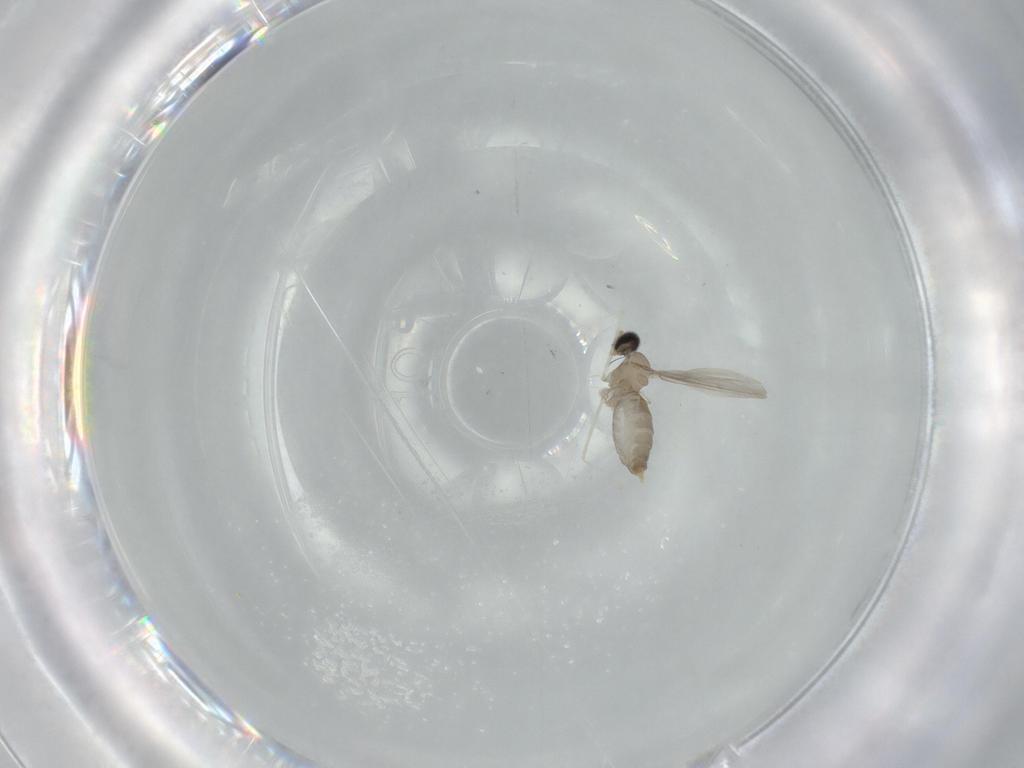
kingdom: Animalia
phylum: Arthropoda
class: Insecta
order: Diptera
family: Cecidomyiidae
